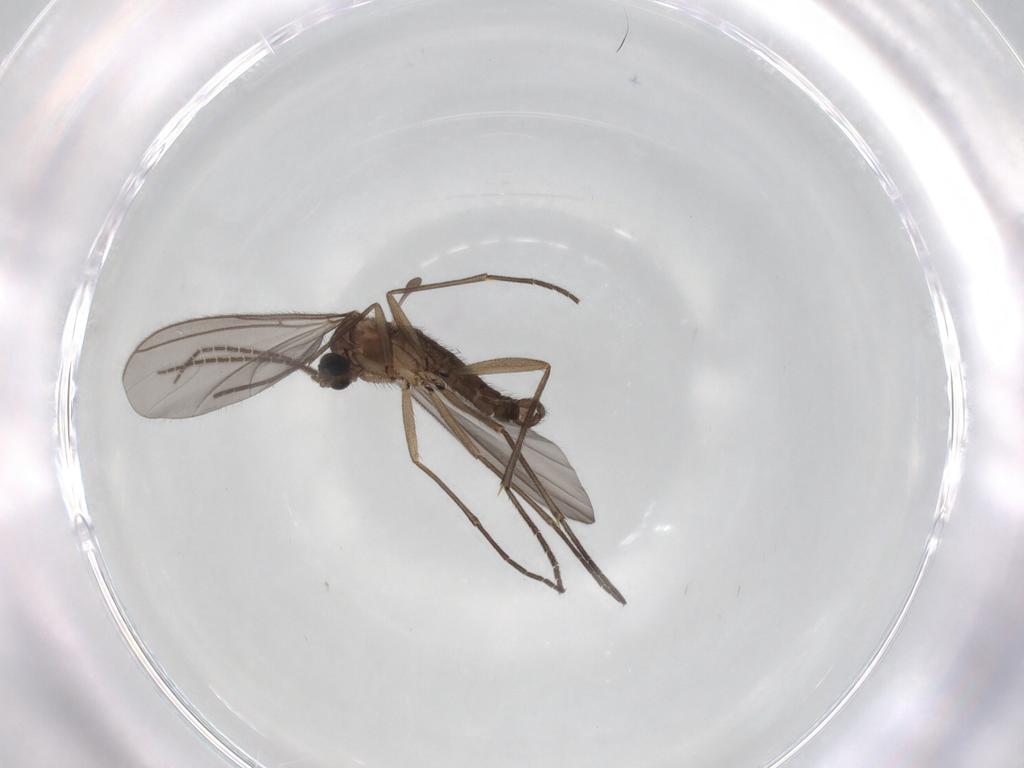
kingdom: Animalia
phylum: Arthropoda
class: Insecta
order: Diptera
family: Sciaridae
